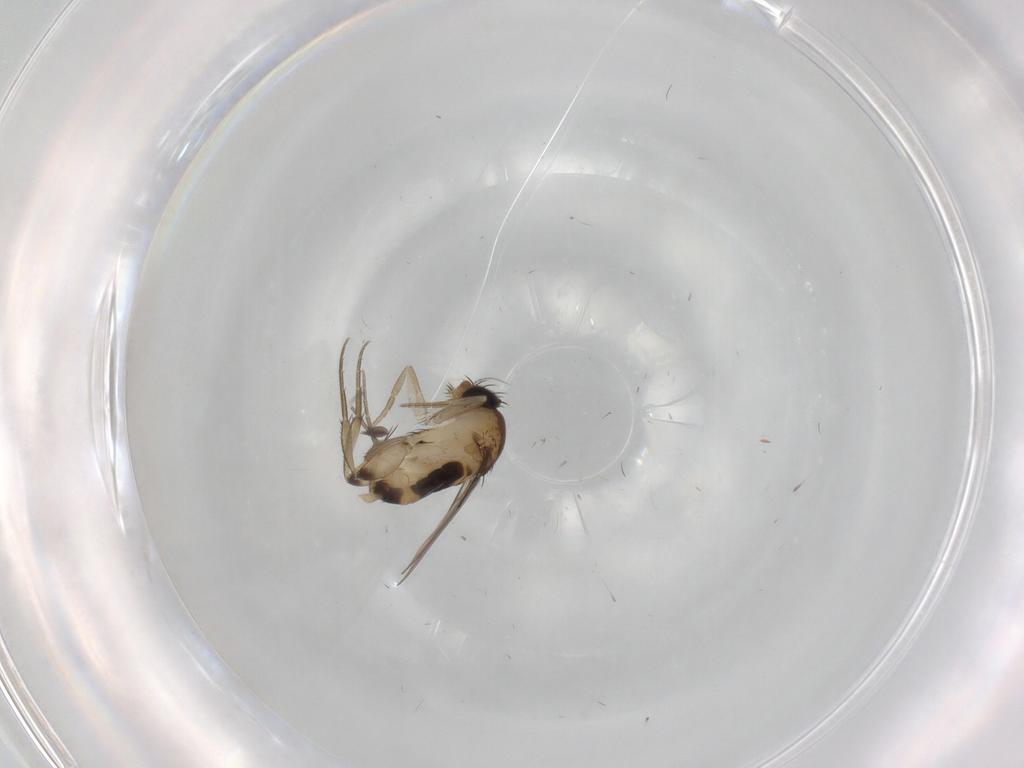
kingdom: Animalia
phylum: Arthropoda
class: Insecta
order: Diptera
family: Phoridae
